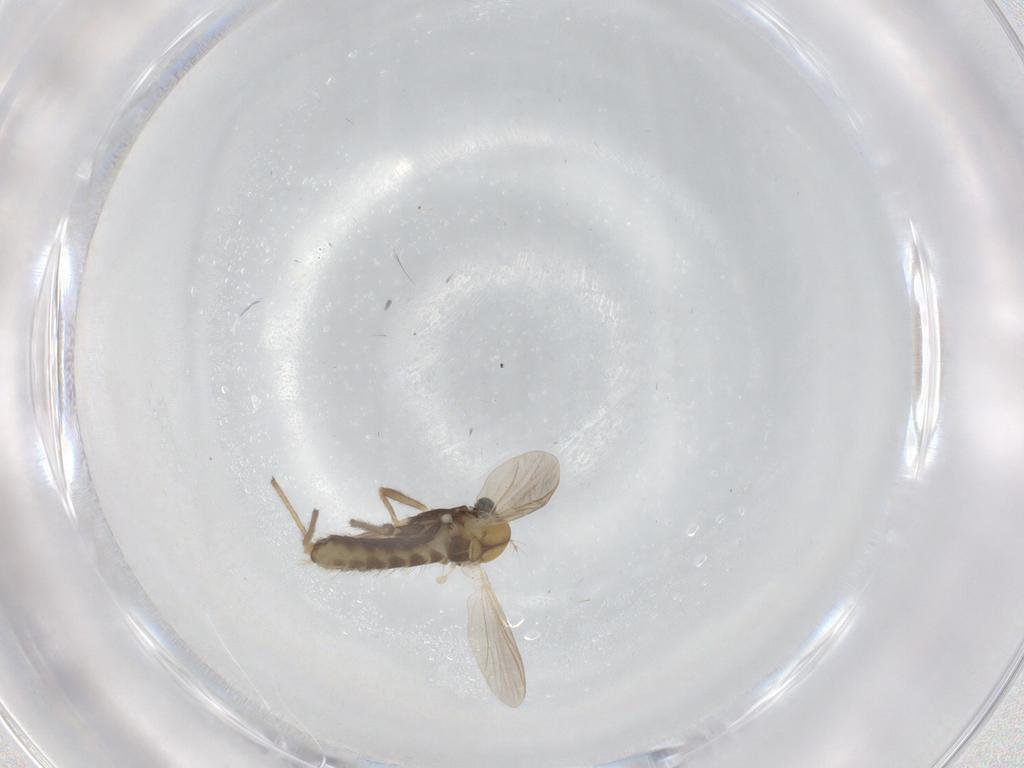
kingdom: Animalia
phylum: Arthropoda
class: Insecta
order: Diptera
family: Chironomidae
